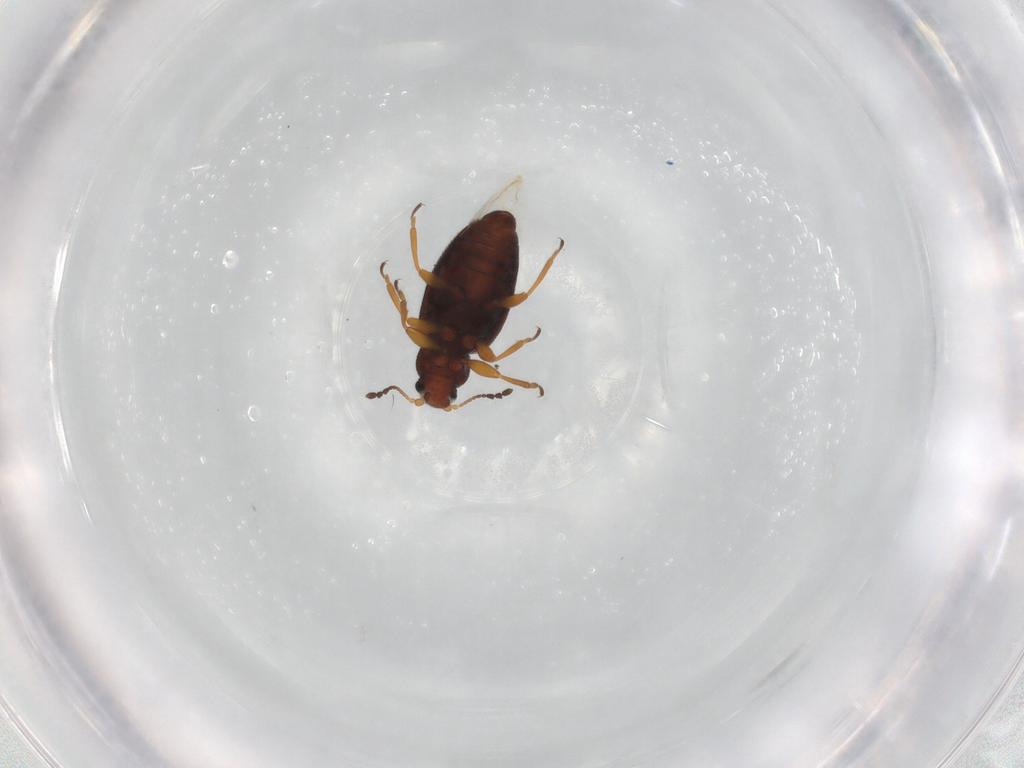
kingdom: Animalia
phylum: Arthropoda
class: Insecta
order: Coleoptera
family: Latridiidae
